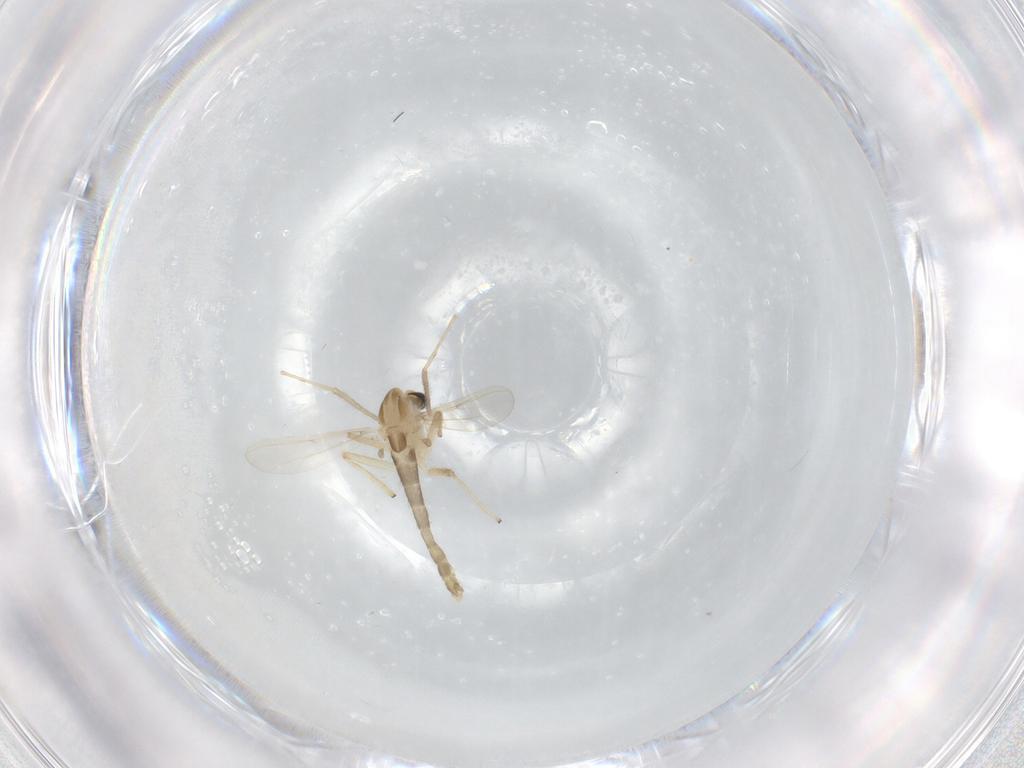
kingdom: Animalia
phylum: Arthropoda
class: Insecta
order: Diptera
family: Chironomidae
